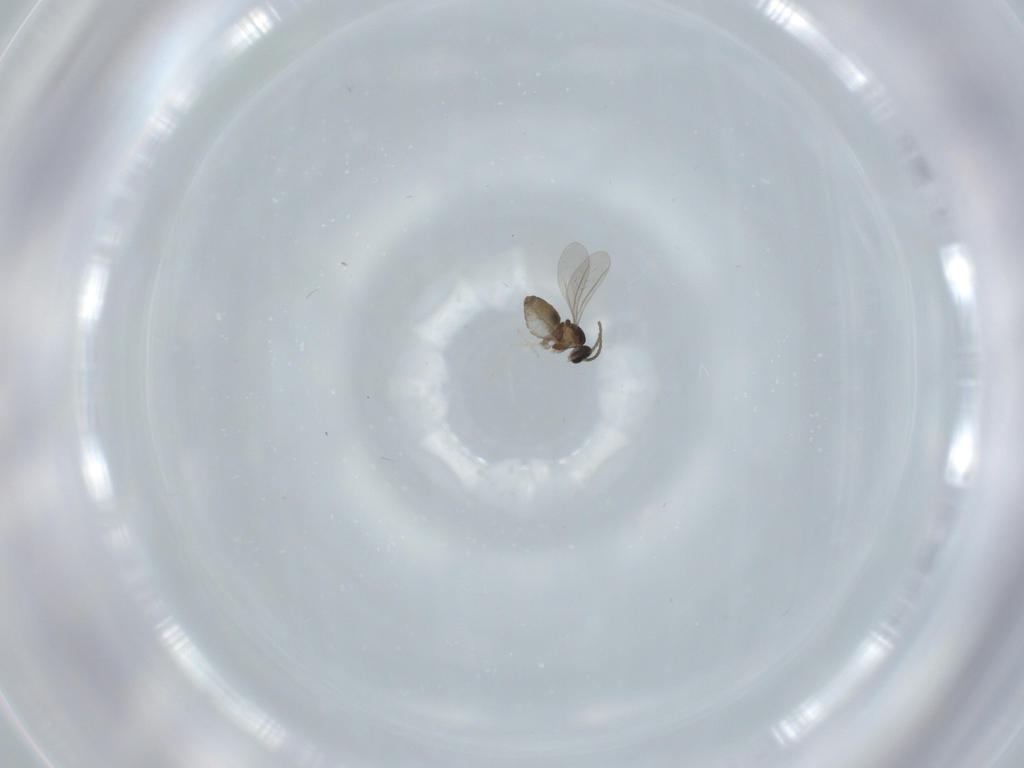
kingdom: Animalia
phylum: Arthropoda
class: Insecta
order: Diptera
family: Cecidomyiidae
